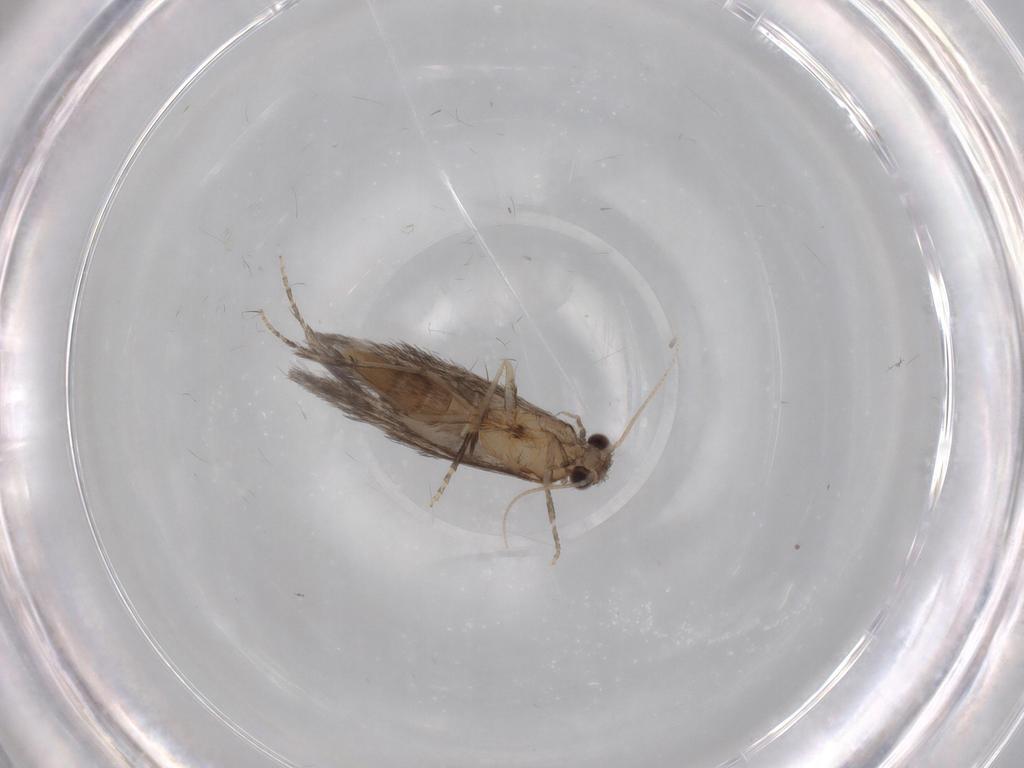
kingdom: Animalia
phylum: Arthropoda
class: Insecta
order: Trichoptera
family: Hydroptilidae
